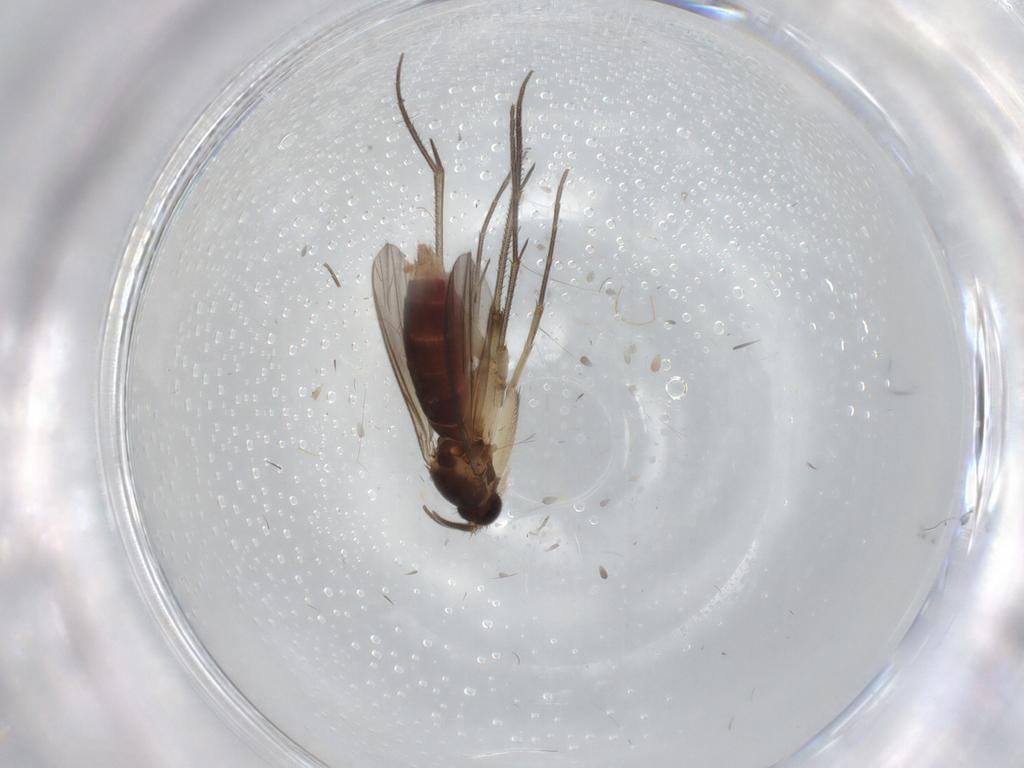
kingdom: Animalia
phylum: Arthropoda
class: Insecta
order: Diptera
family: Mycetophilidae
